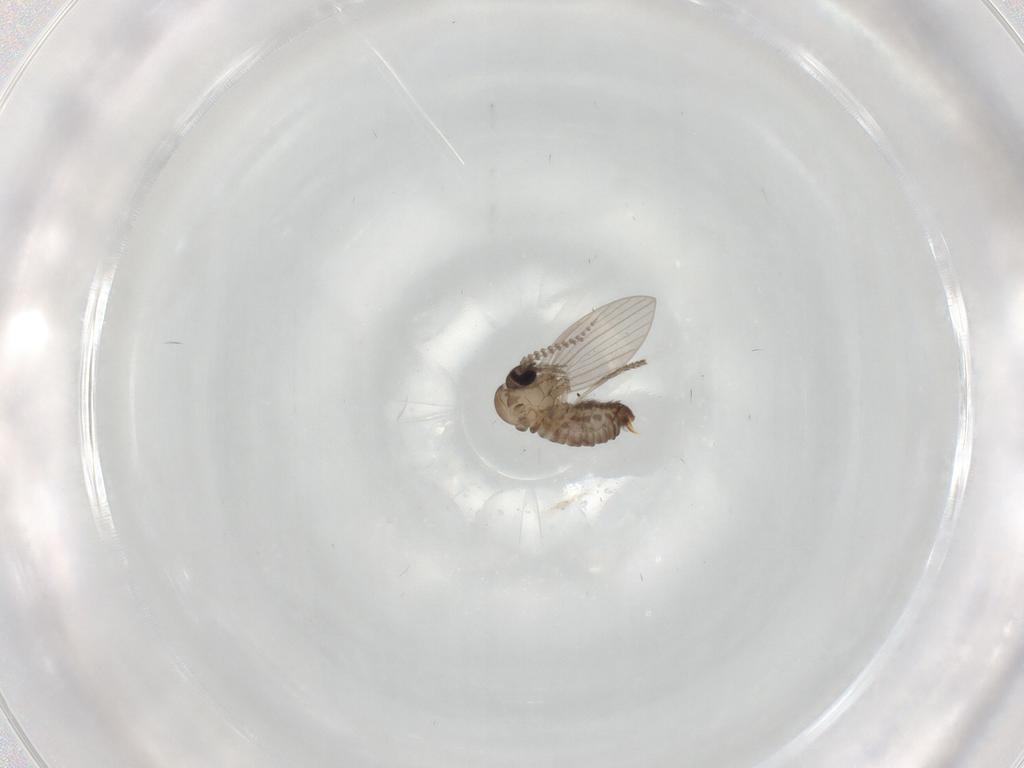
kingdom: Animalia
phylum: Arthropoda
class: Insecta
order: Diptera
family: Psychodidae
